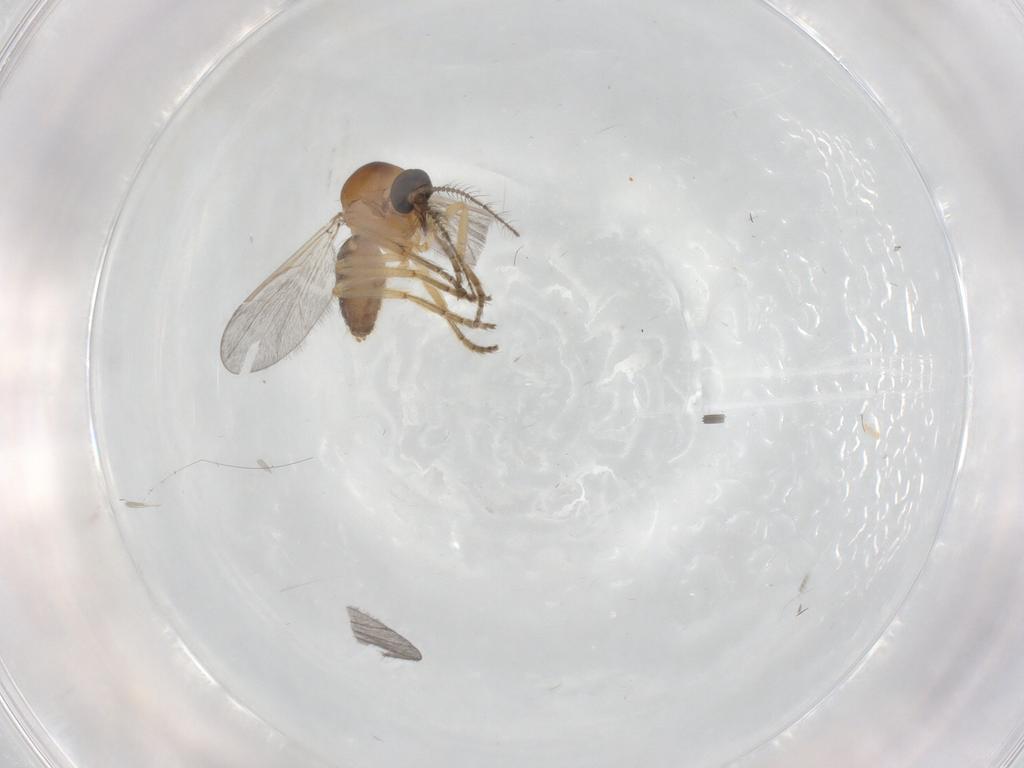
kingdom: Animalia
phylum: Arthropoda
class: Insecta
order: Diptera
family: Ceratopogonidae
